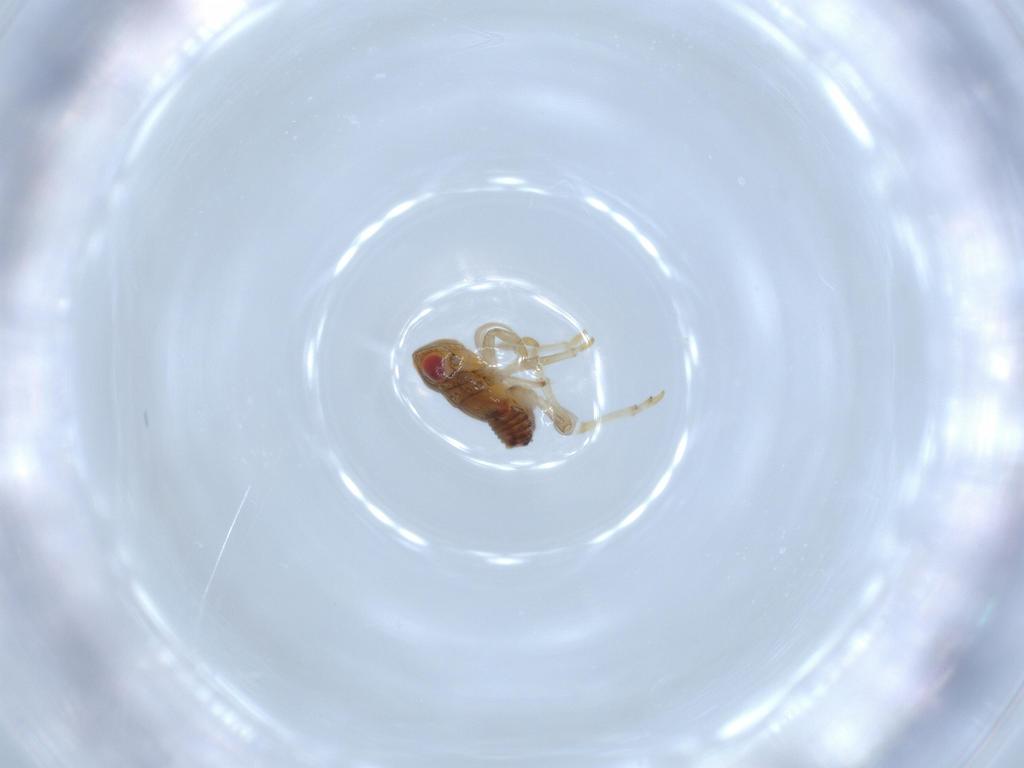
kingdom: Animalia
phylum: Arthropoda
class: Insecta
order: Hemiptera
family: Issidae
